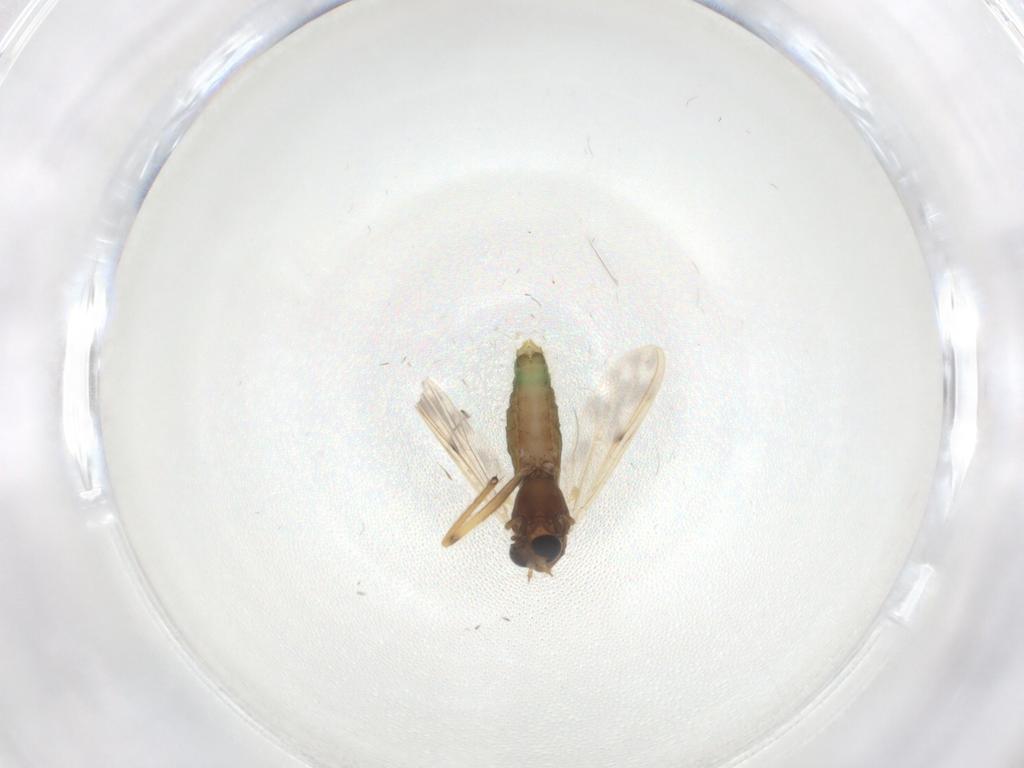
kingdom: Animalia
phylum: Arthropoda
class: Insecta
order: Diptera
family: Chironomidae
